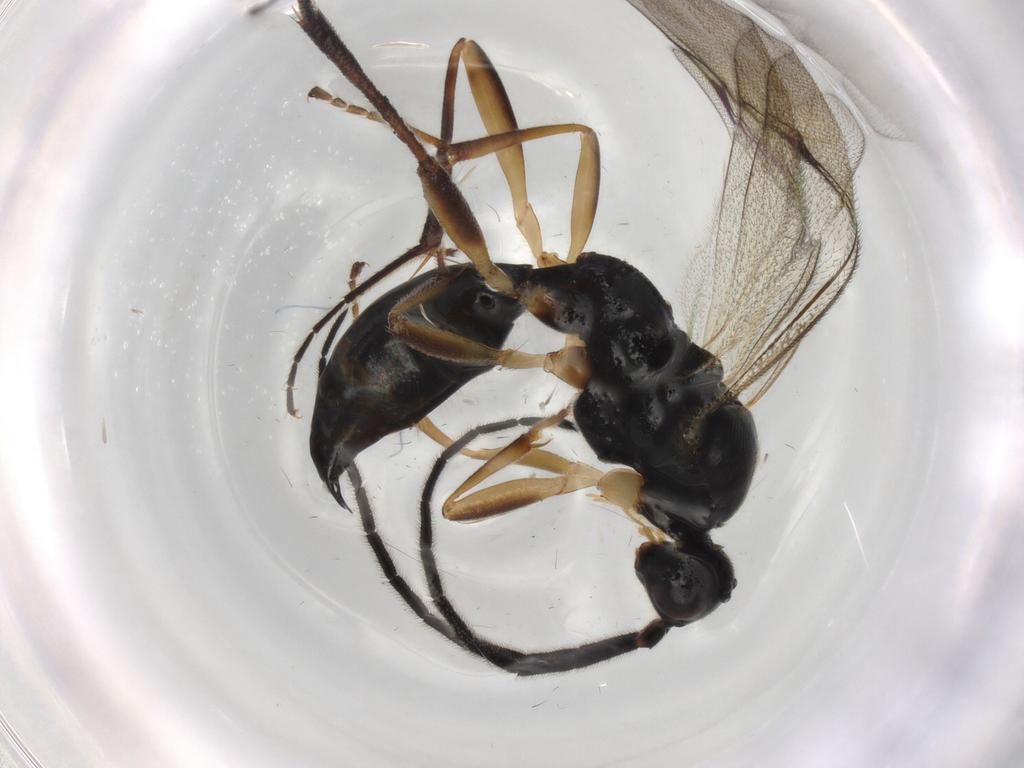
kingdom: Animalia
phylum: Arthropoda
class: Insecta
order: Hymenoptera
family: Proctotrupidae
